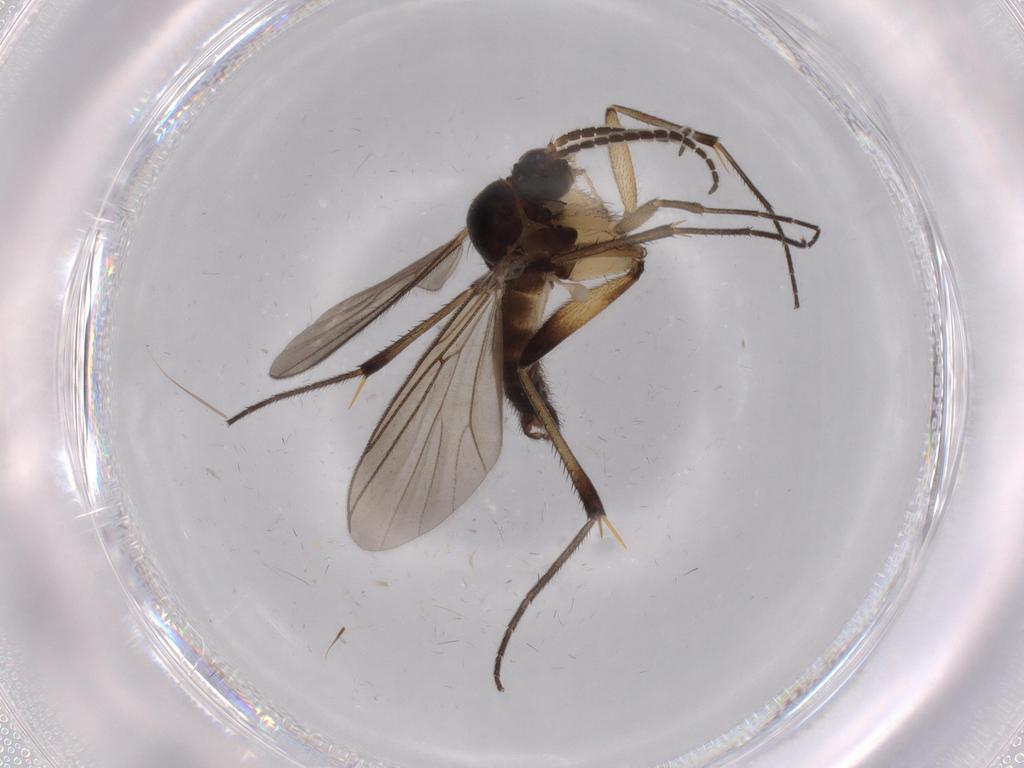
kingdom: Animalia
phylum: Arthropoda
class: Insecta
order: Diptera
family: Mycetophilidae
